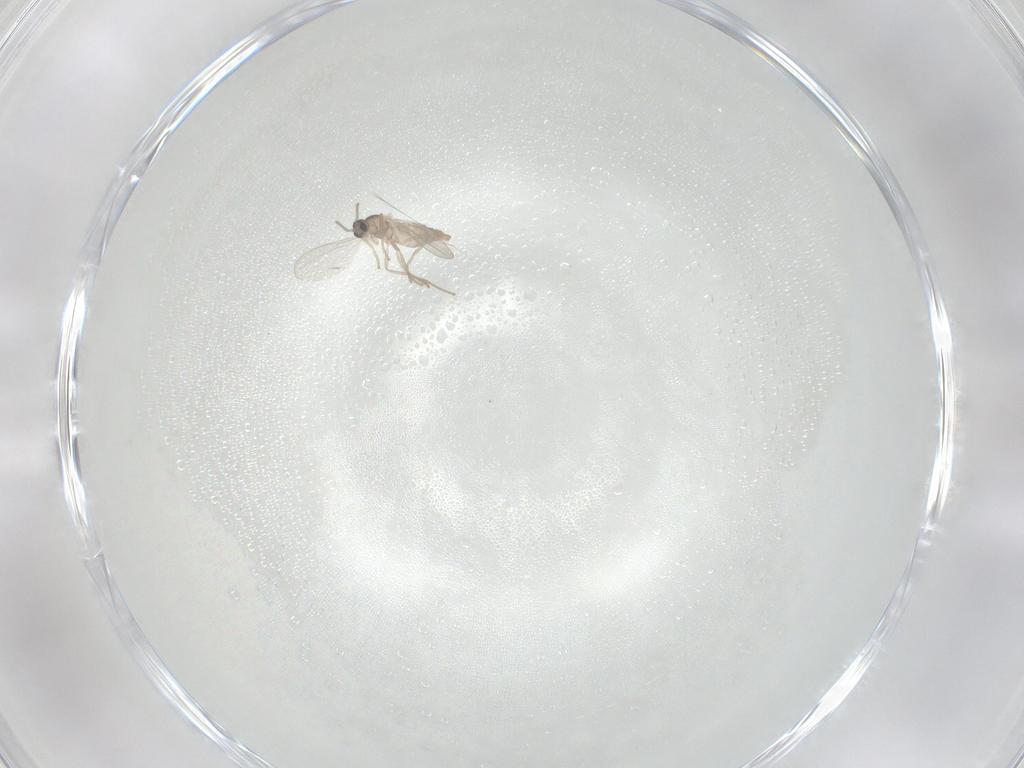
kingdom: Animalia
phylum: Arthropoda
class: Insecta
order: Diptera
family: Cecidomyiidae
